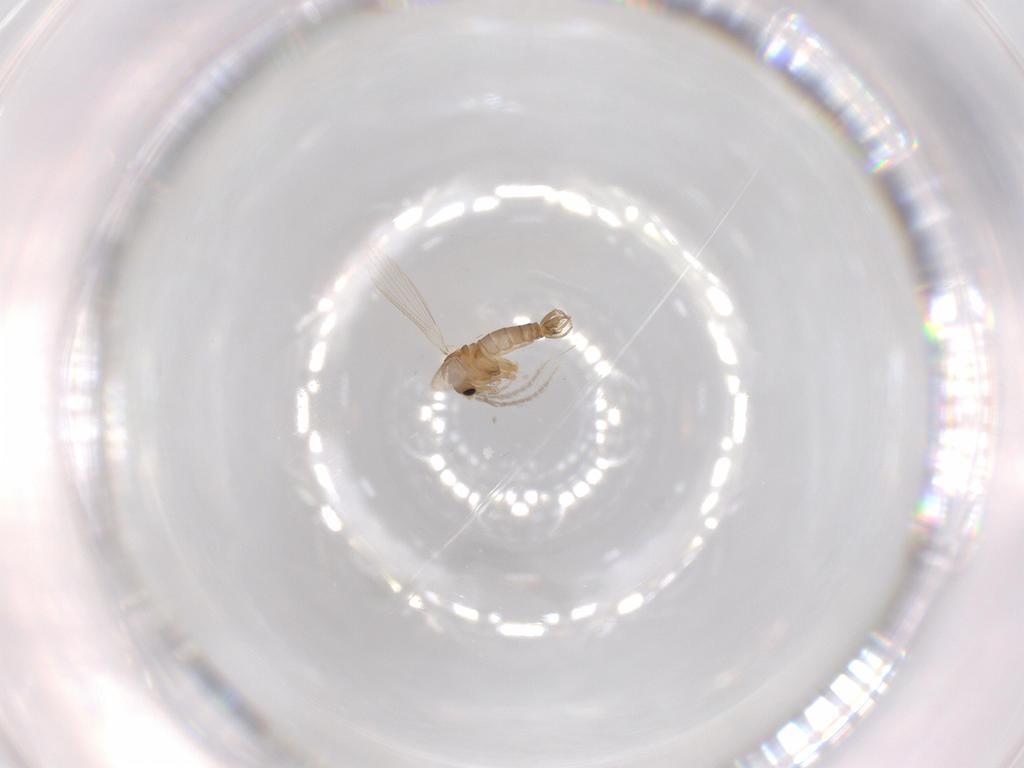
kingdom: Animalia
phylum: Arthropoda
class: Insecta
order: Diptera
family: Psychodidae
